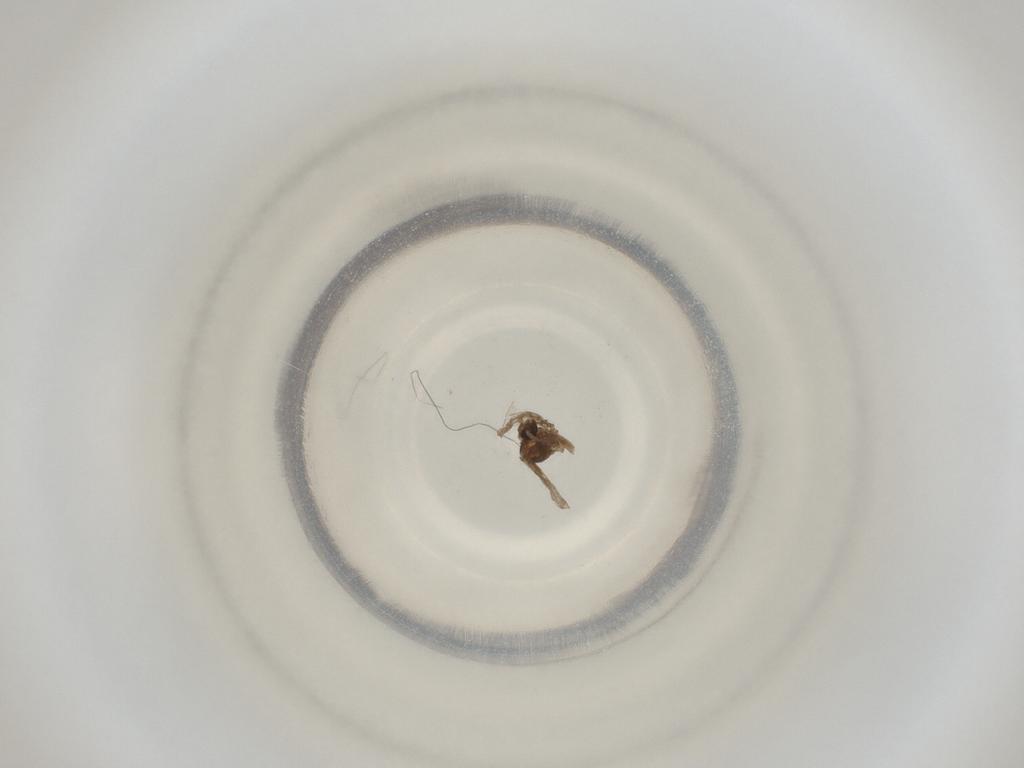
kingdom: Animalia
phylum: Arthropoda
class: Insecta
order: Diptera
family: Cecidomyiidae
